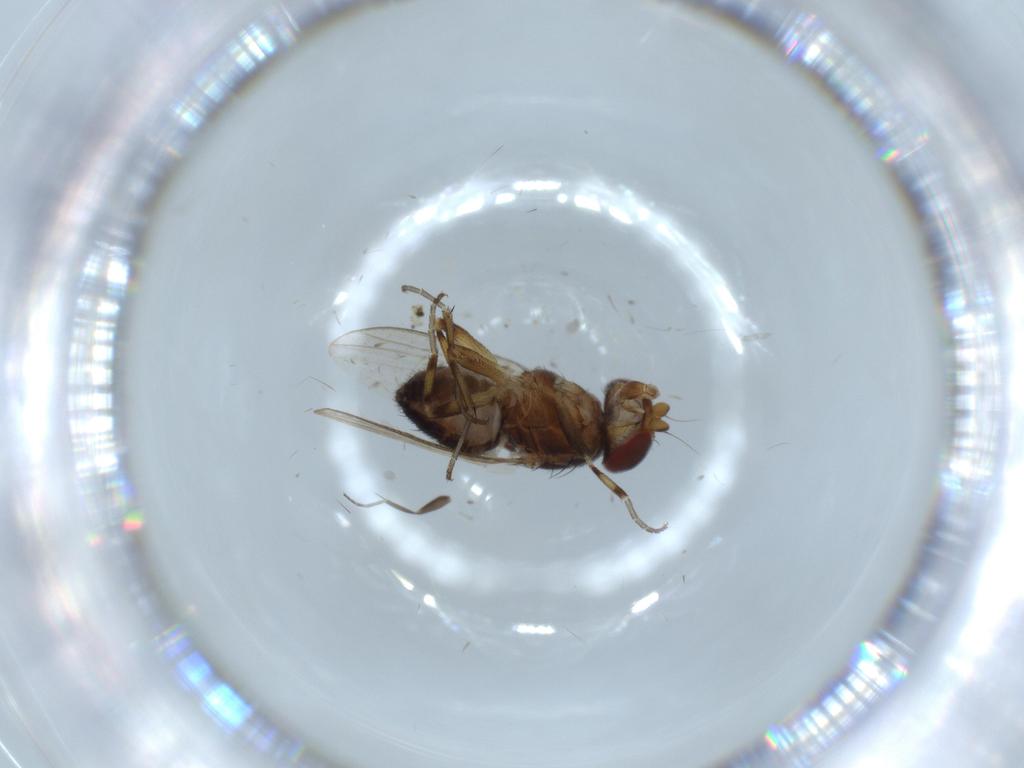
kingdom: Animalia
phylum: Arthropoda
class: Insecta
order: Diptera
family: Heleomyzidae
